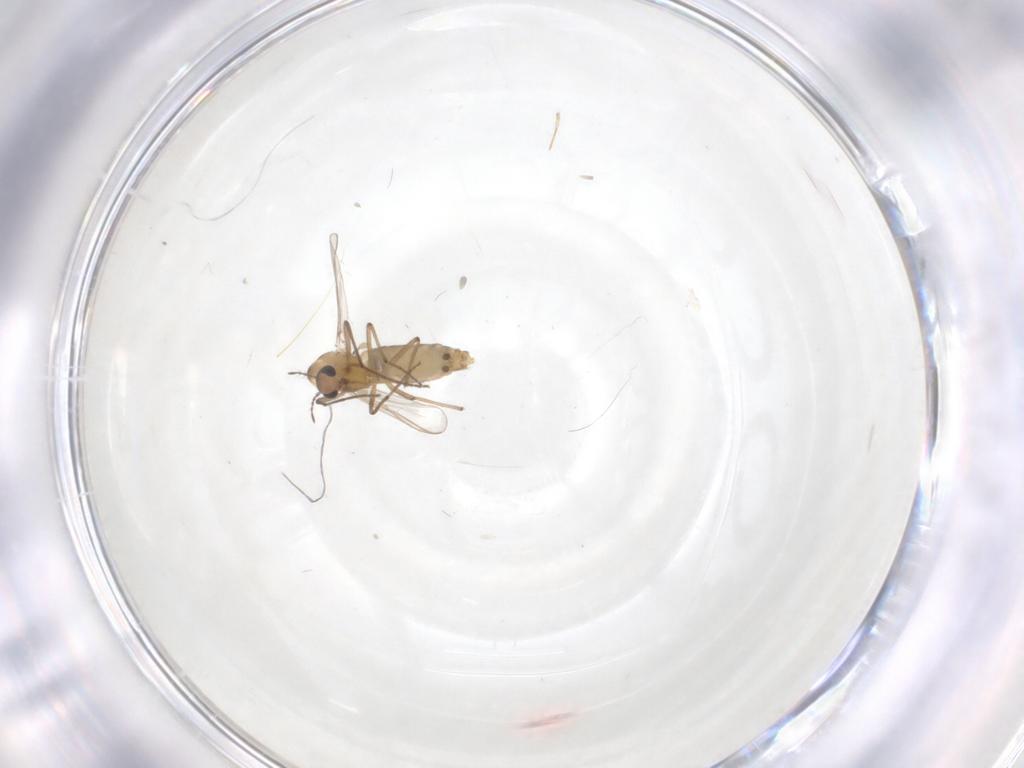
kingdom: Animalia
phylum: Arthropoda
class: Insecta
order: Diptera
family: Chironomidae
